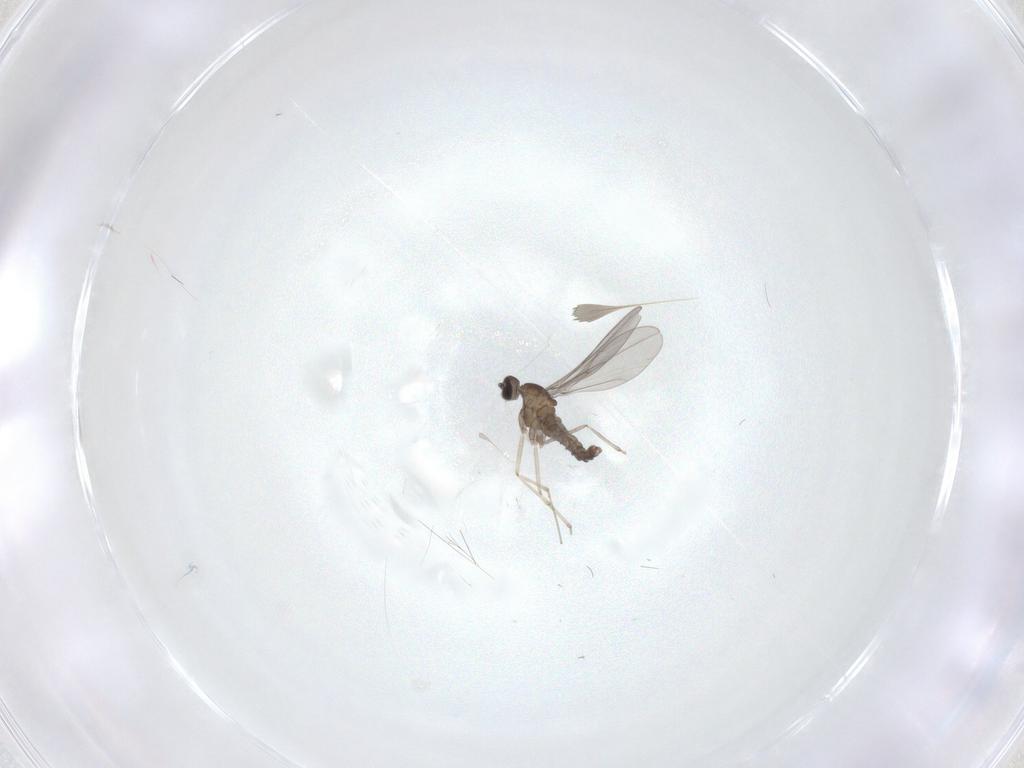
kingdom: Animalia
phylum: Arthropoda
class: Insecta
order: Diptera
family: Cecidomyiidae
